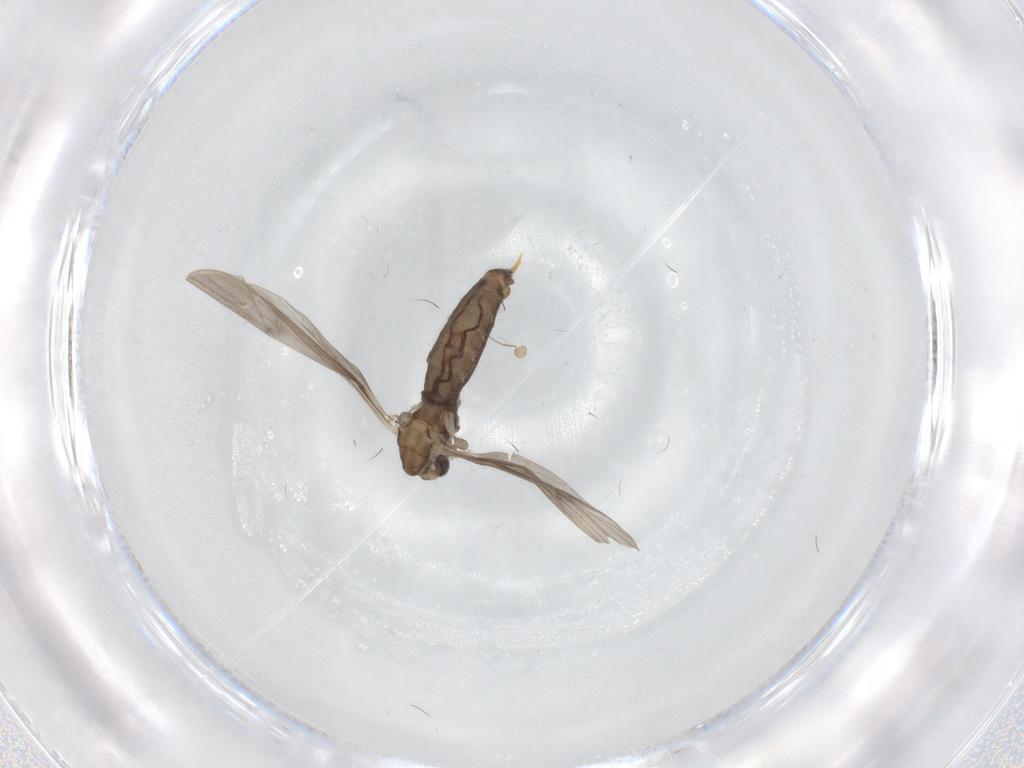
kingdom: Animalia
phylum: Arthropoda
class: Insecta
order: Diptera
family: Limoniidae
